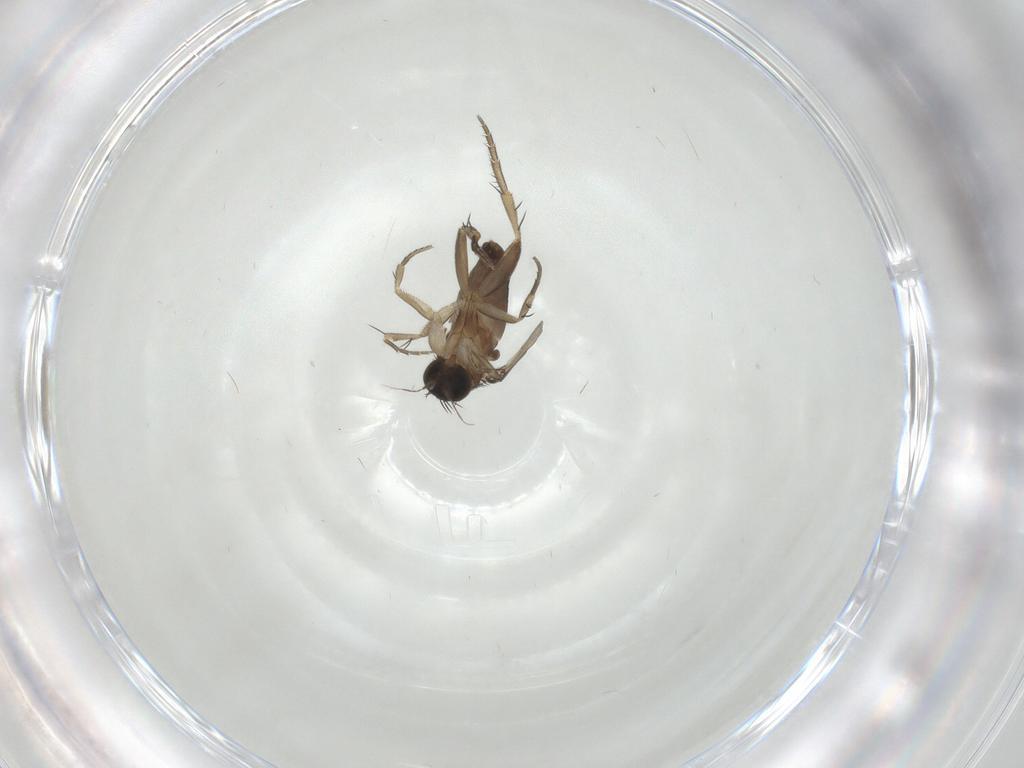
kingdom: Animalia
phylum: Arthropoda
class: Insecta
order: Diptera
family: Phoridae
